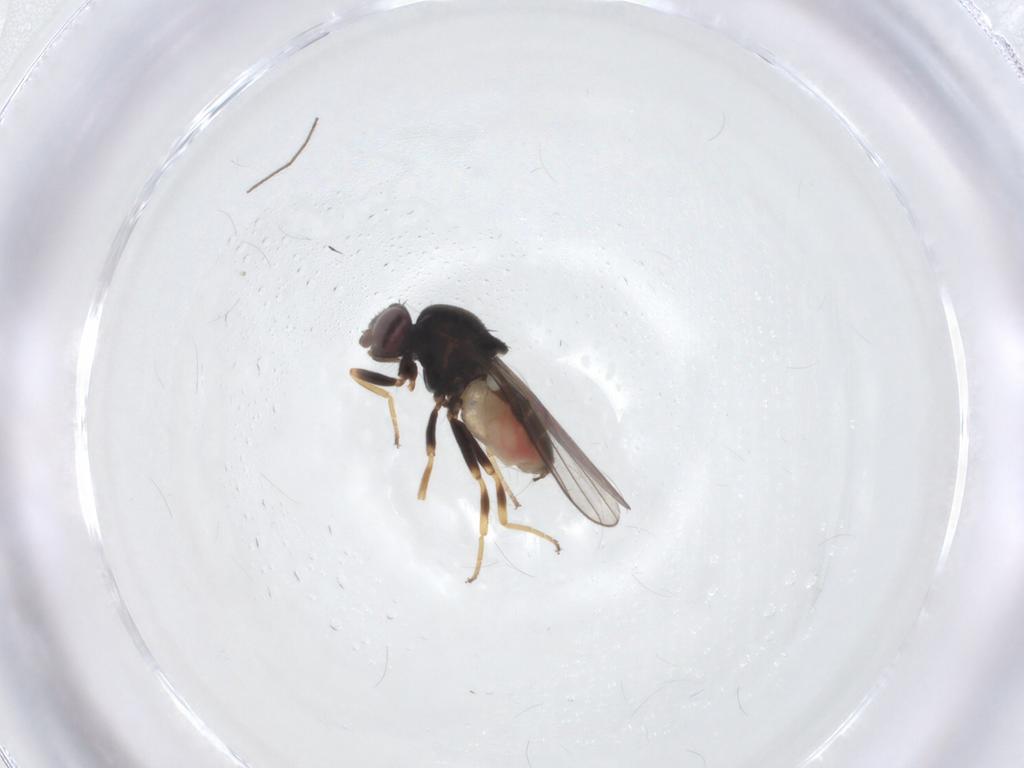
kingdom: Animalia
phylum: Arthropoda
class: Insecta
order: Diptera
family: Chloropidae
